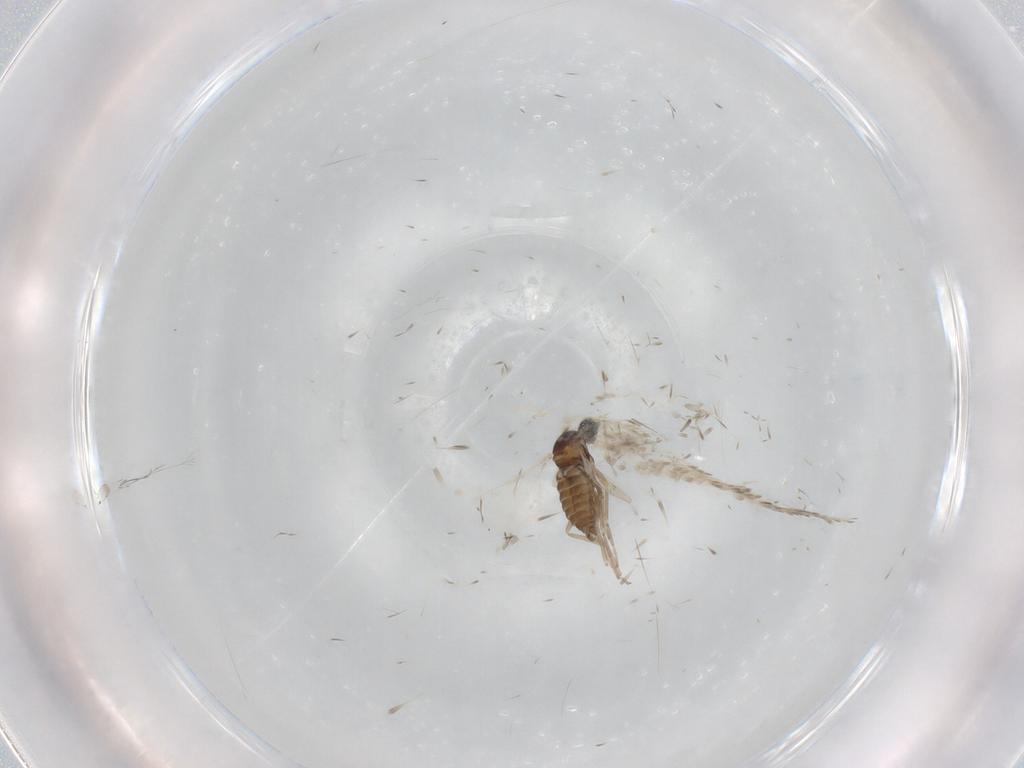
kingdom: Animalia
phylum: Arthropoda
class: Insecta
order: Diptera
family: Cecidomyiidae
